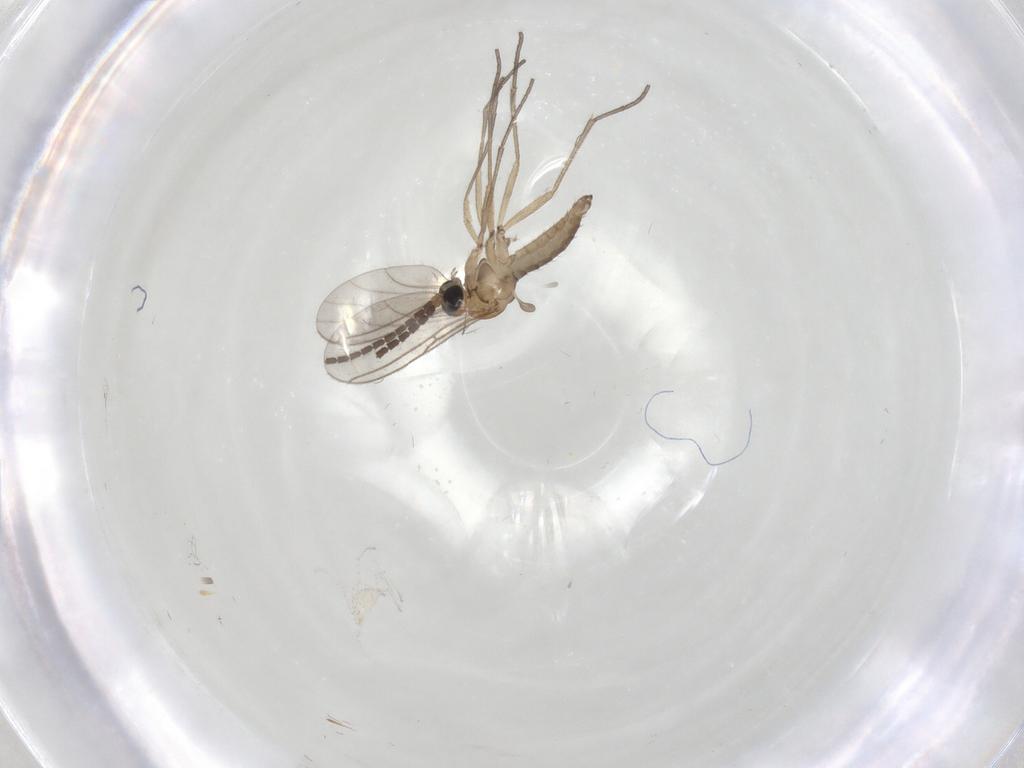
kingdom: Animalia
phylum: Arthropoda
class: Insecta
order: Diptera
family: Sciaridae
